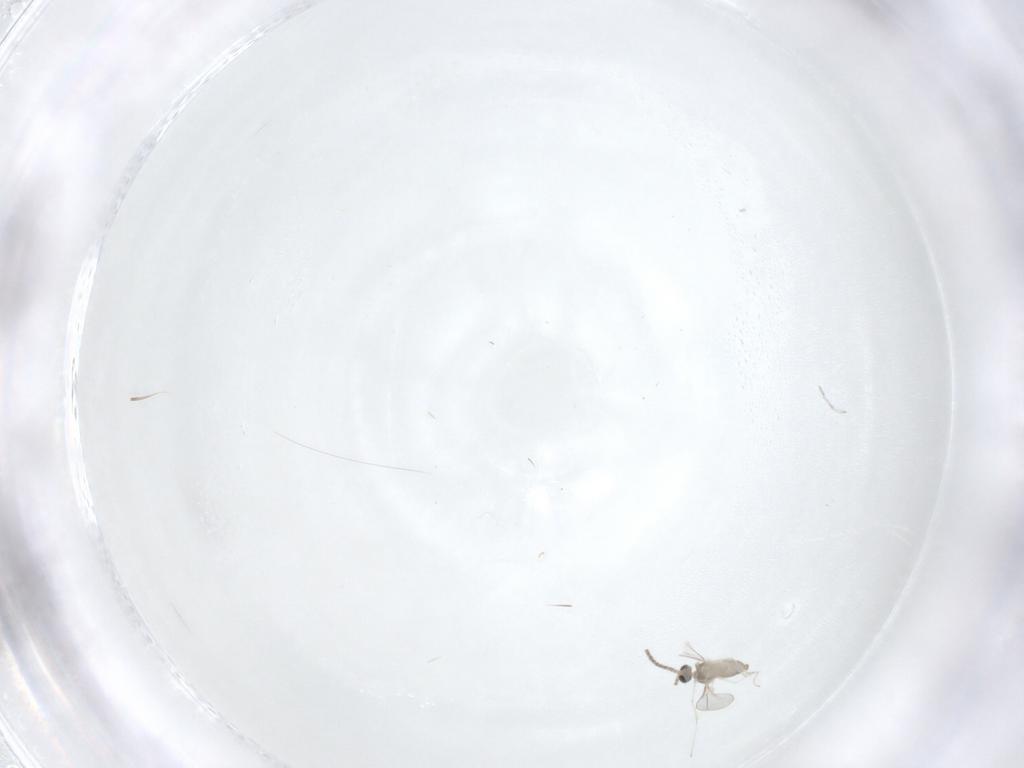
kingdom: Animalia
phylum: Arthropoda
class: Insecta
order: Diptera
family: Cecidomyiidae
